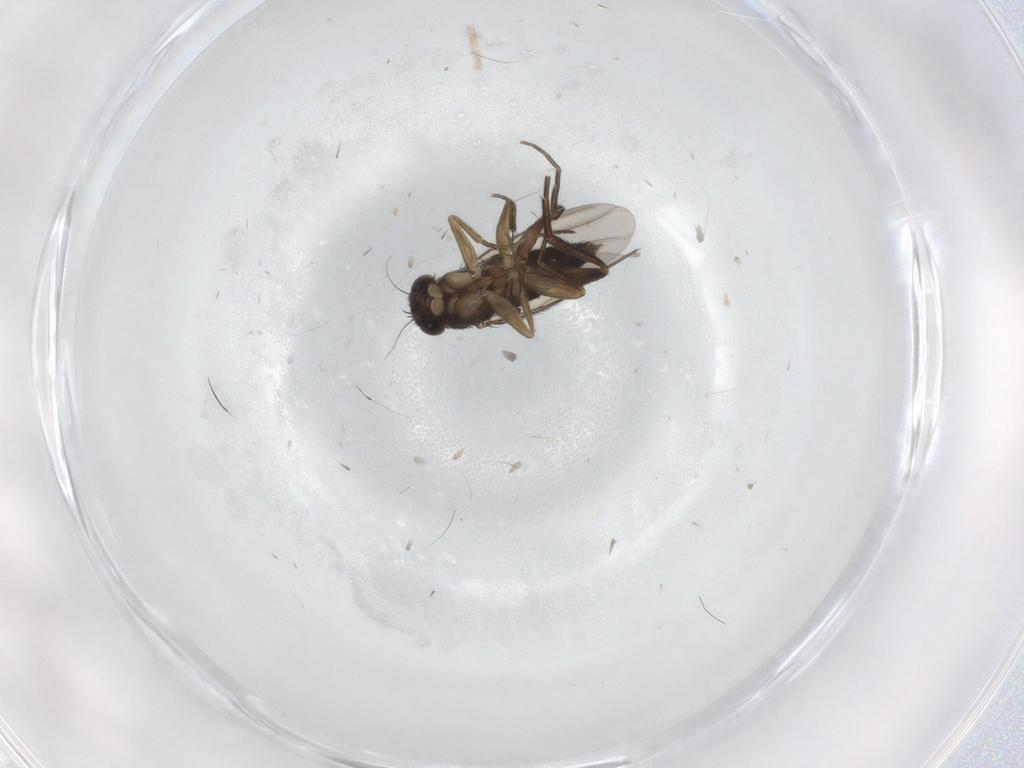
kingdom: Animalia
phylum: Arthropoda
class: Insecta
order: Diptera
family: Phoridae
